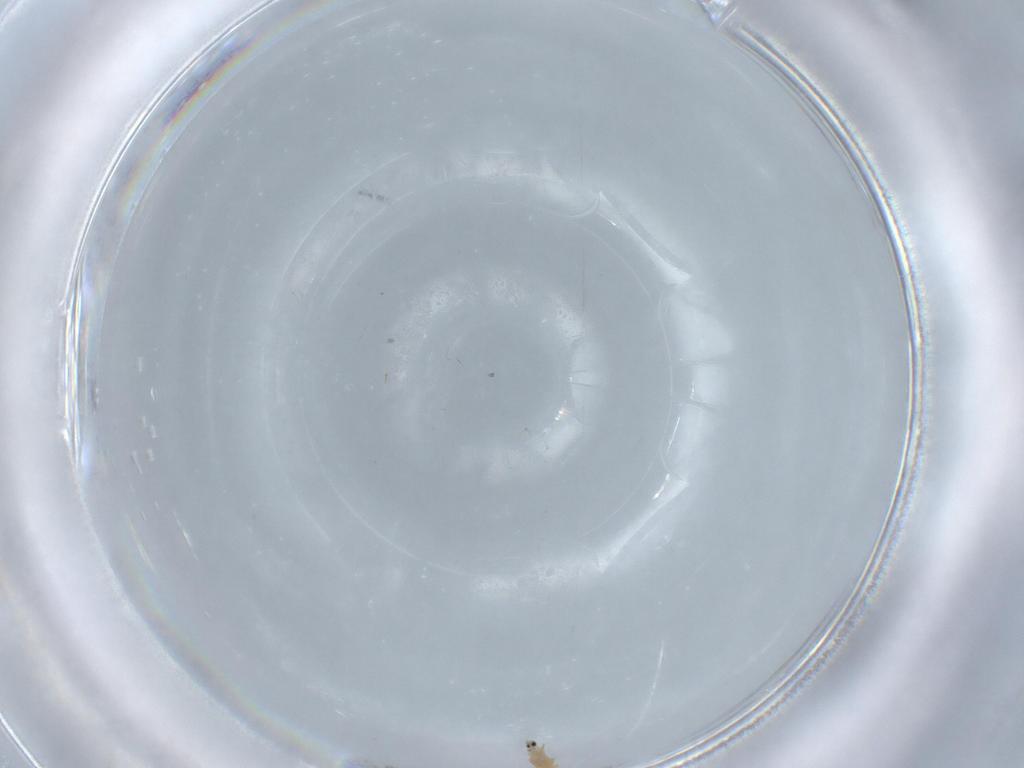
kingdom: Animalia
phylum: Arthropoda
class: Insecta
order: Diptera
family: Cecidomyiidae
